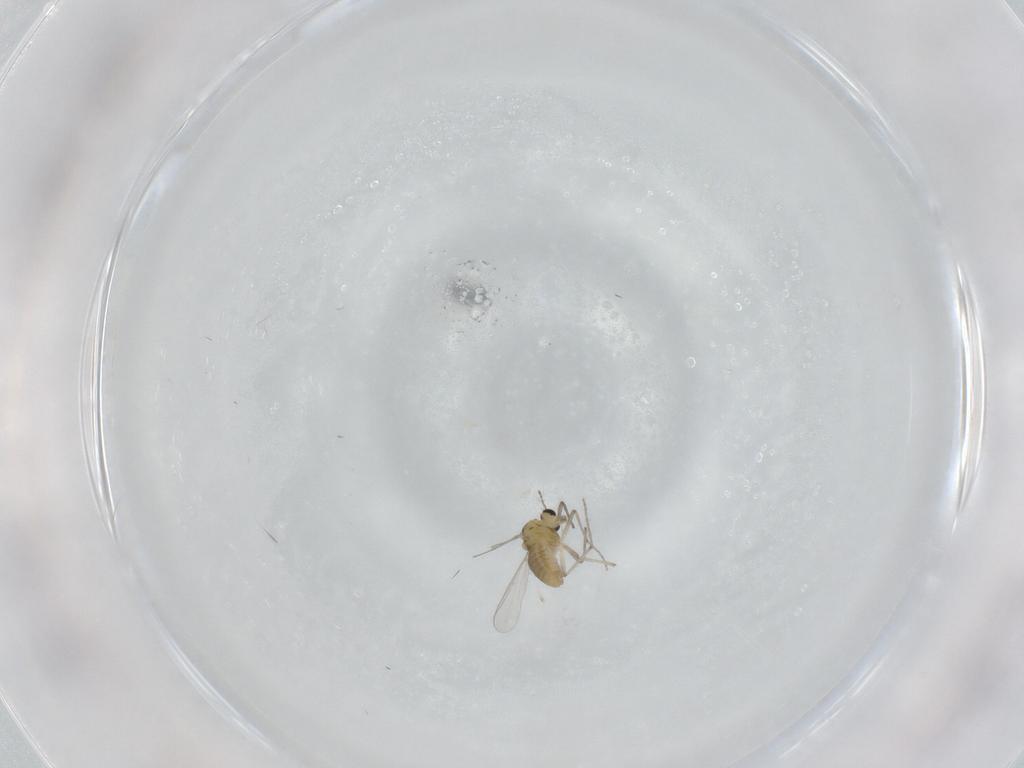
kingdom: Animalia
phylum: Arthropoda
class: Insecta
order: Diptera
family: Chironomidae
